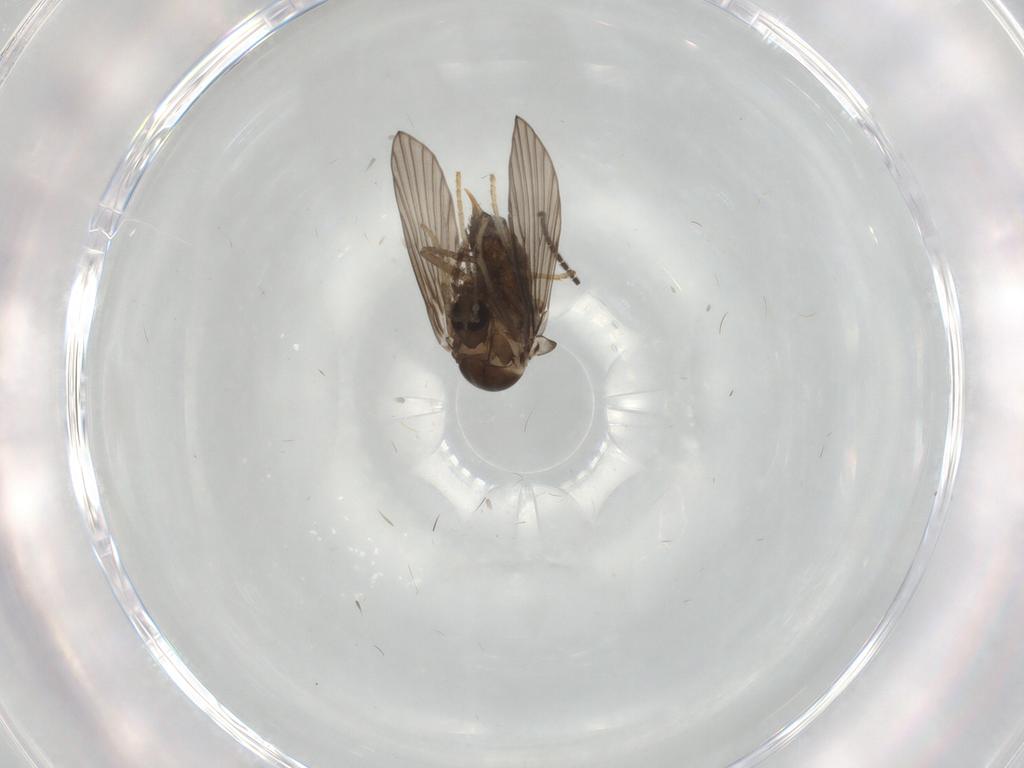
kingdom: Animalia
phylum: Arthropoda
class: Insecta
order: Diptera
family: Psychodidae
